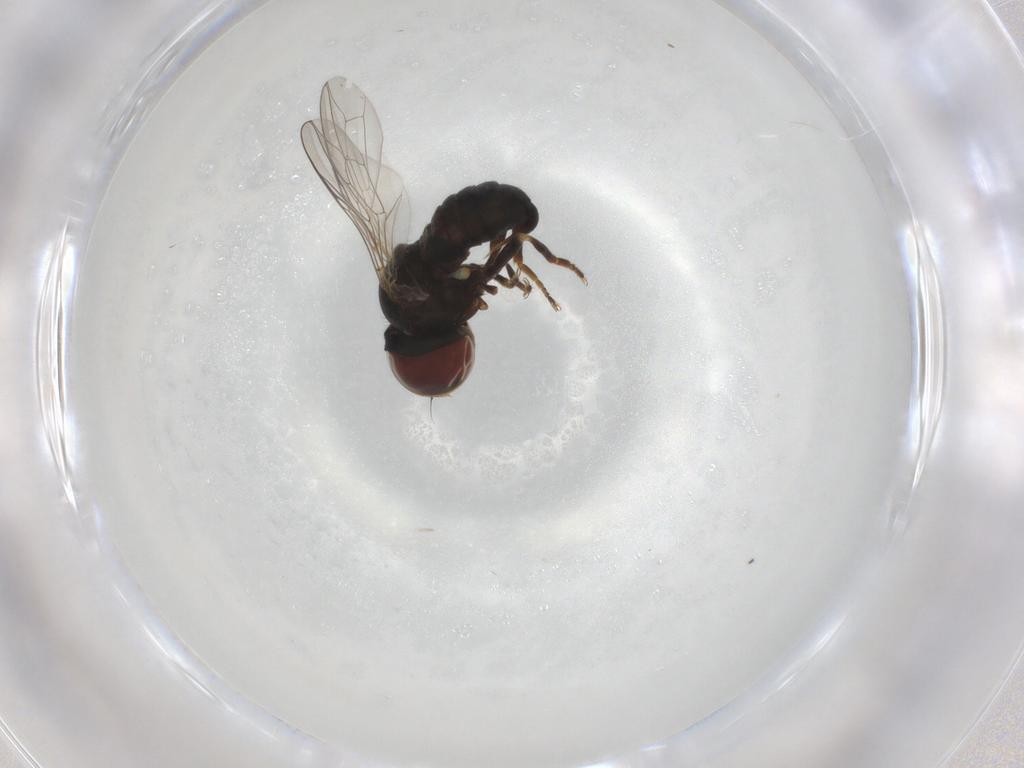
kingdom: Animalia
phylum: Arthropoda
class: Insecta
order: Diptera
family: Pipunculidae
